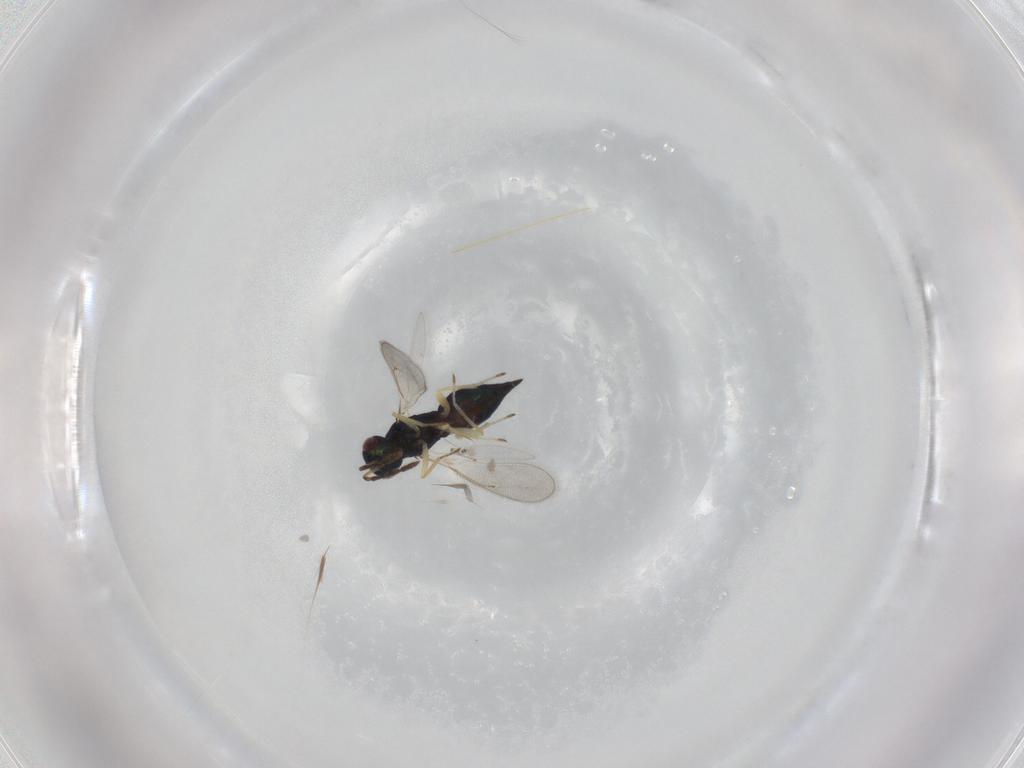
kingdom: Animalia
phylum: Arthropoda
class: Insecta
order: Hymenoptera
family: Eulophidae
